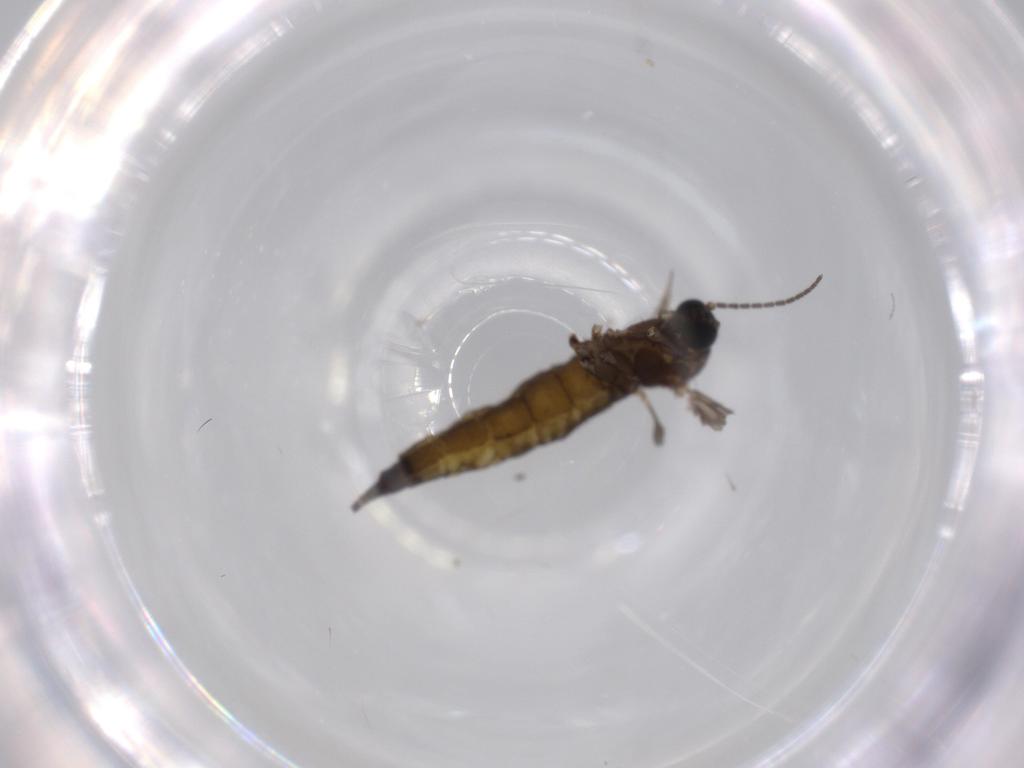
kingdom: Animalia
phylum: Arthropoda
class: Insecta
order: Diptera
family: Sciaridae
